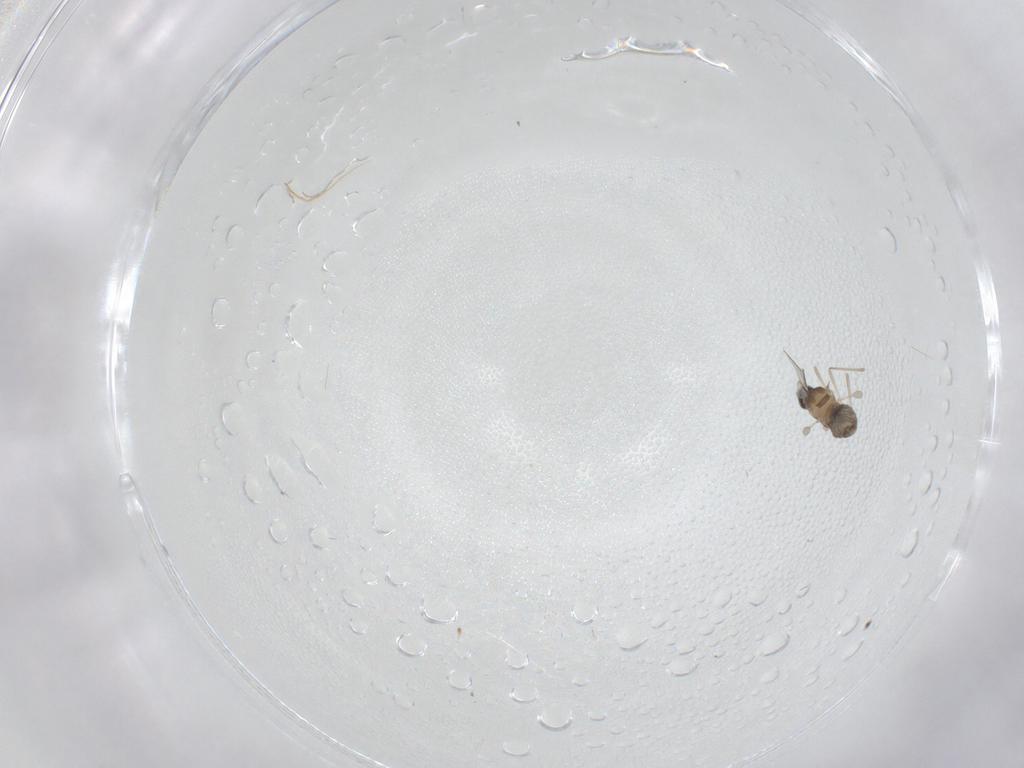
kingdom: Animalia
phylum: Arthropoda
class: Insecta
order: Diptera
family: Cecidomyiidae
